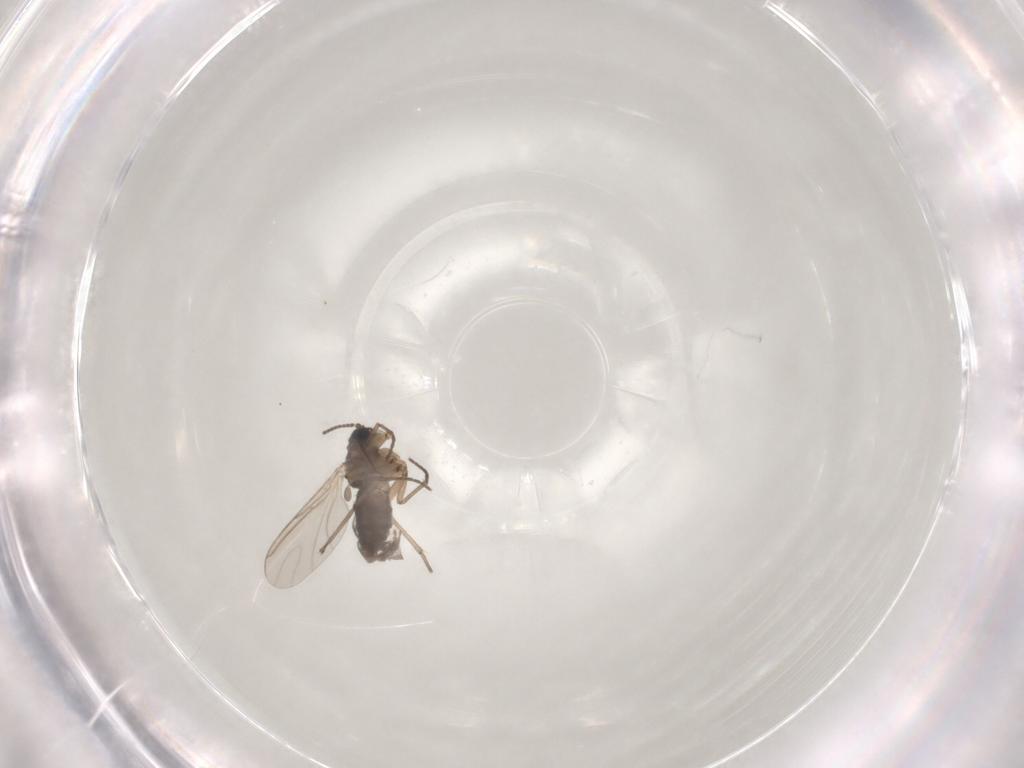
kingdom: Animalia
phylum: Arthropoda
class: Insecta
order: Diptera
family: Sciaridae
